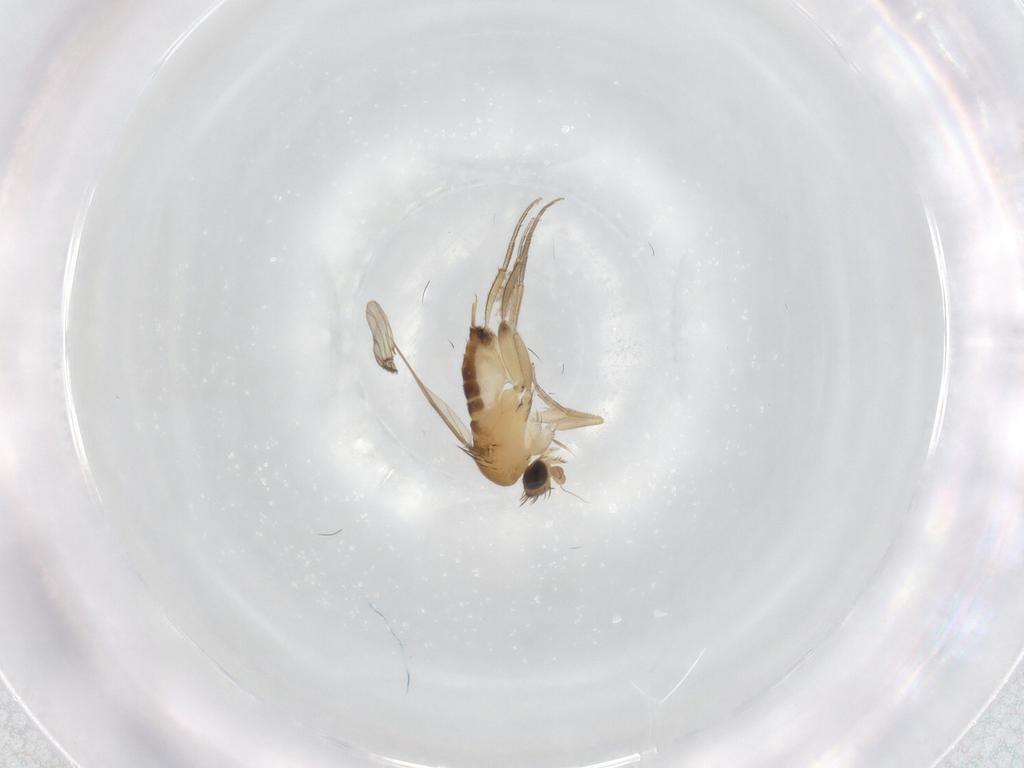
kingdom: Animalia
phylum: Arthropoda
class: Insecta
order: Diptera
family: Phoridae
